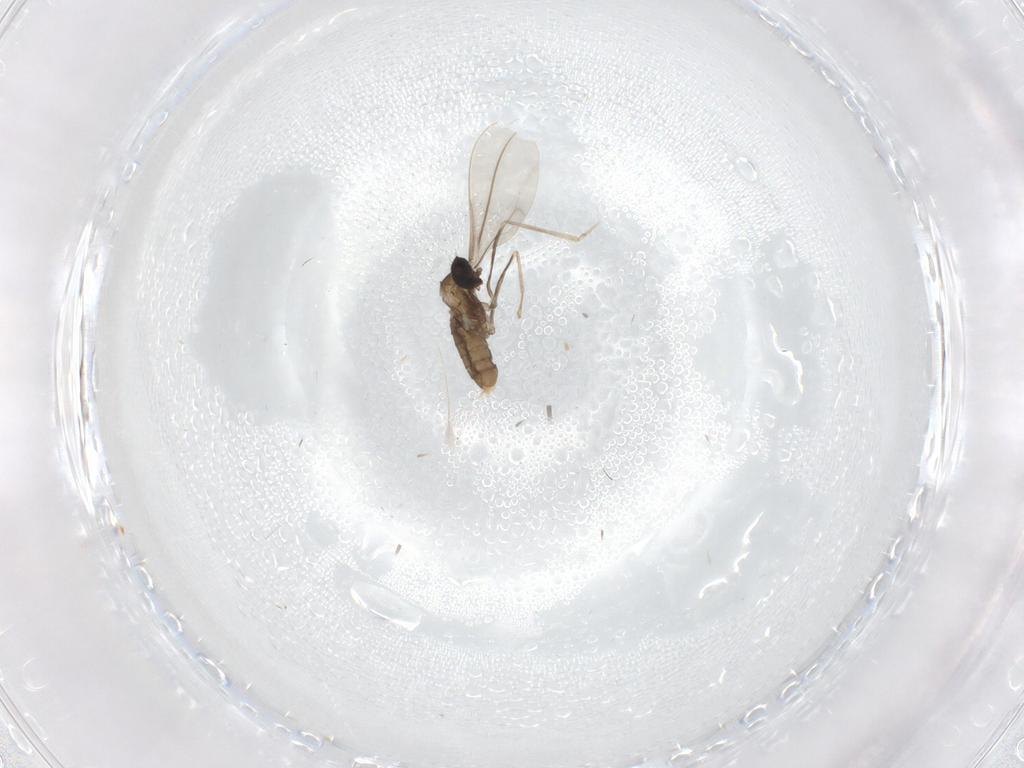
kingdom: Animalia
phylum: Arthropoda
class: Insecta
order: Diptera
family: Cecidomyiidae
